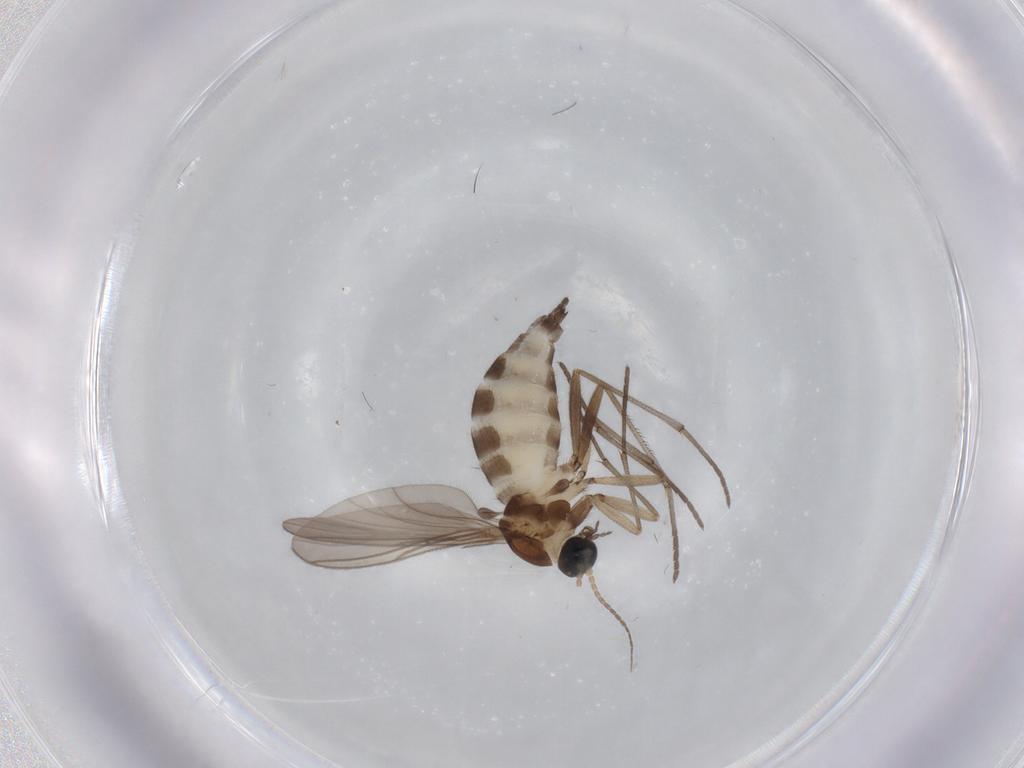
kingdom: Animalia
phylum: Arthropoda
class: Insecta
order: Diptera
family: Sciaridae
